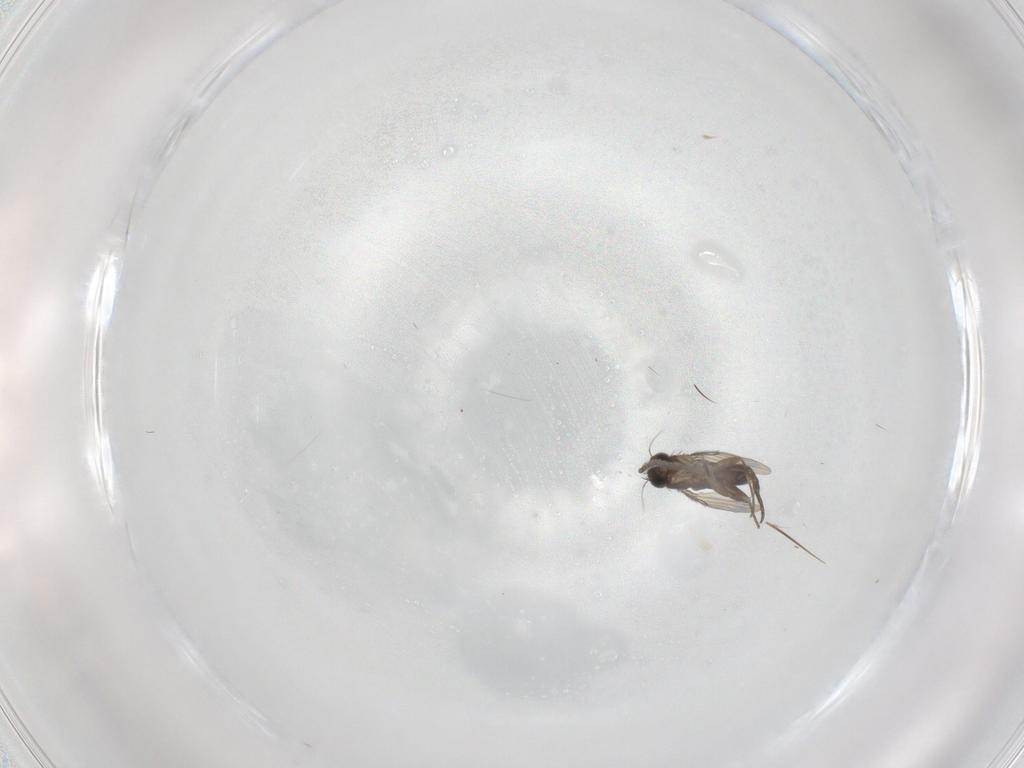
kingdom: Animalia
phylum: Arthropoda
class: Insecta
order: Diptera
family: Phoridae
